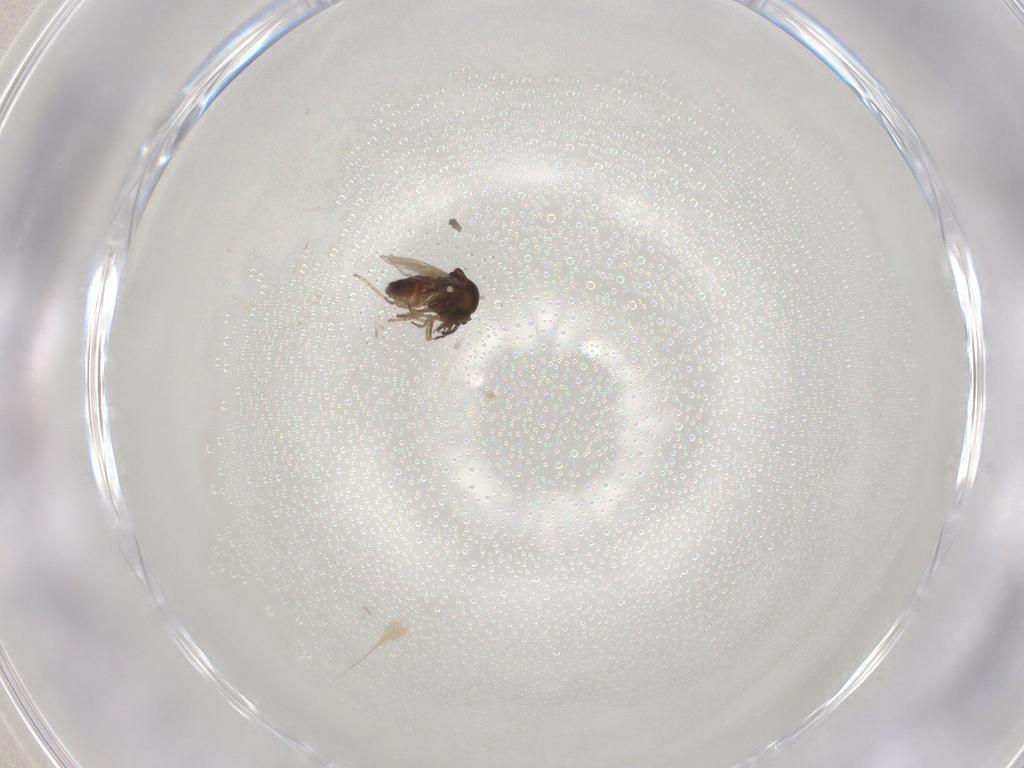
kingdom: Animalia
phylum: Arthropoda
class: Insecta
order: Diptera
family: Ceratopogonidae
